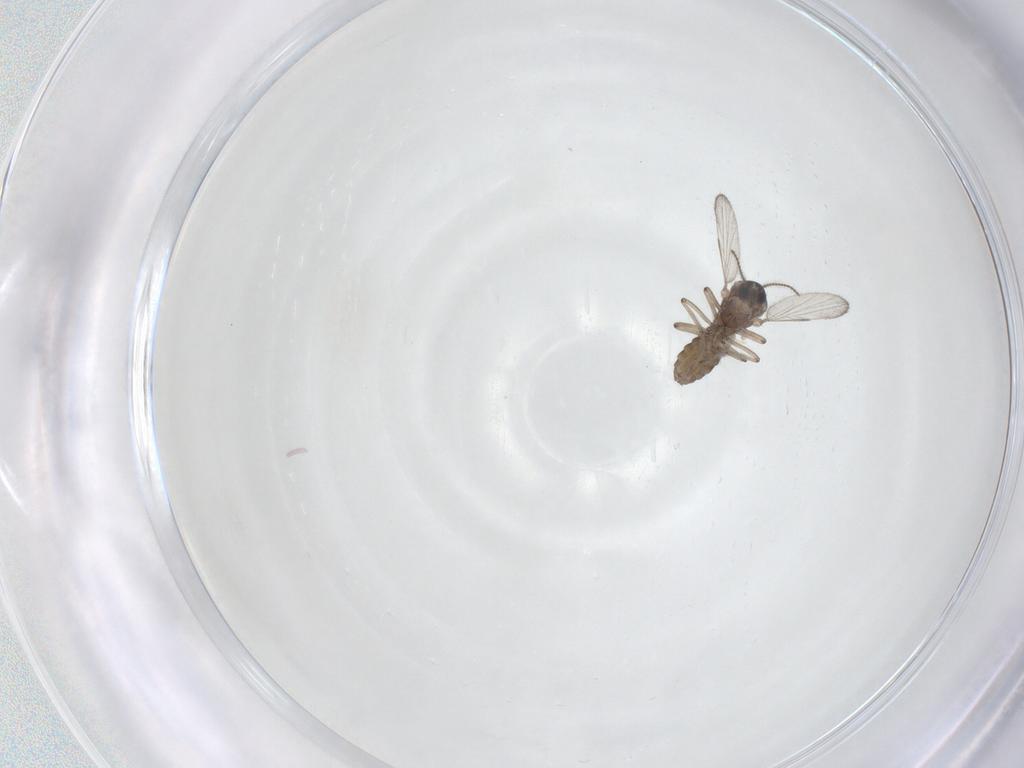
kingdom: Animalia
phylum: Arthropoda
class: Insecta
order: Diptera
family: Ceratopogonidae
